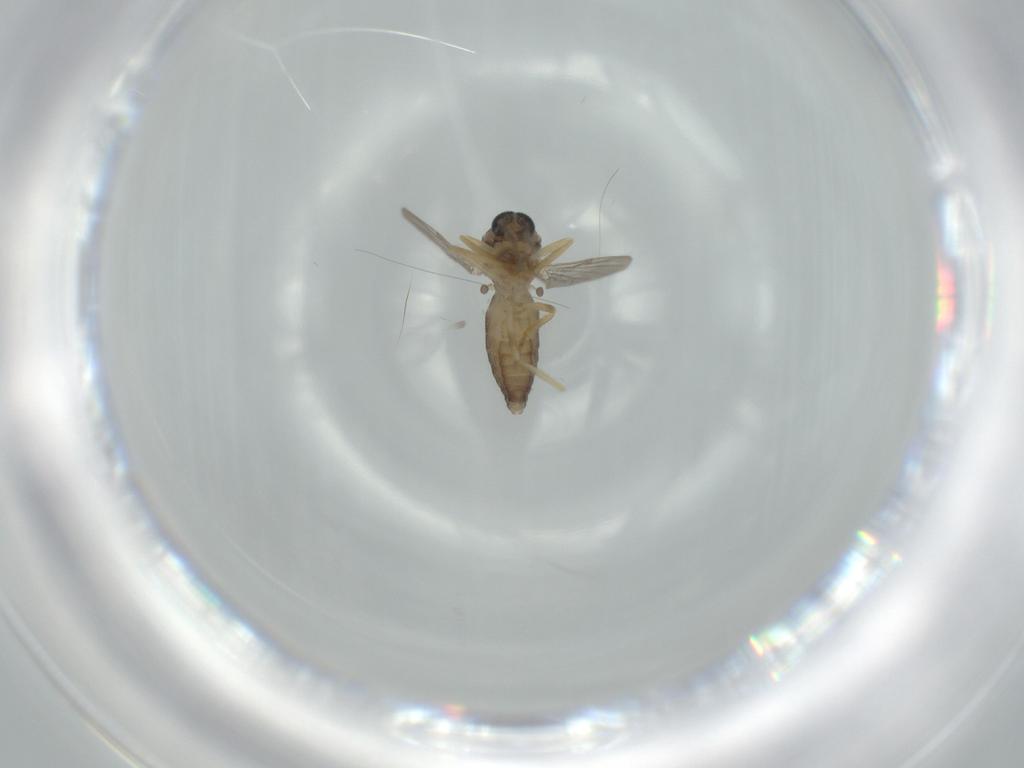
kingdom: Animalia
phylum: Arthropoda
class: Insecta
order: Diptera
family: Ceratopogonidae
